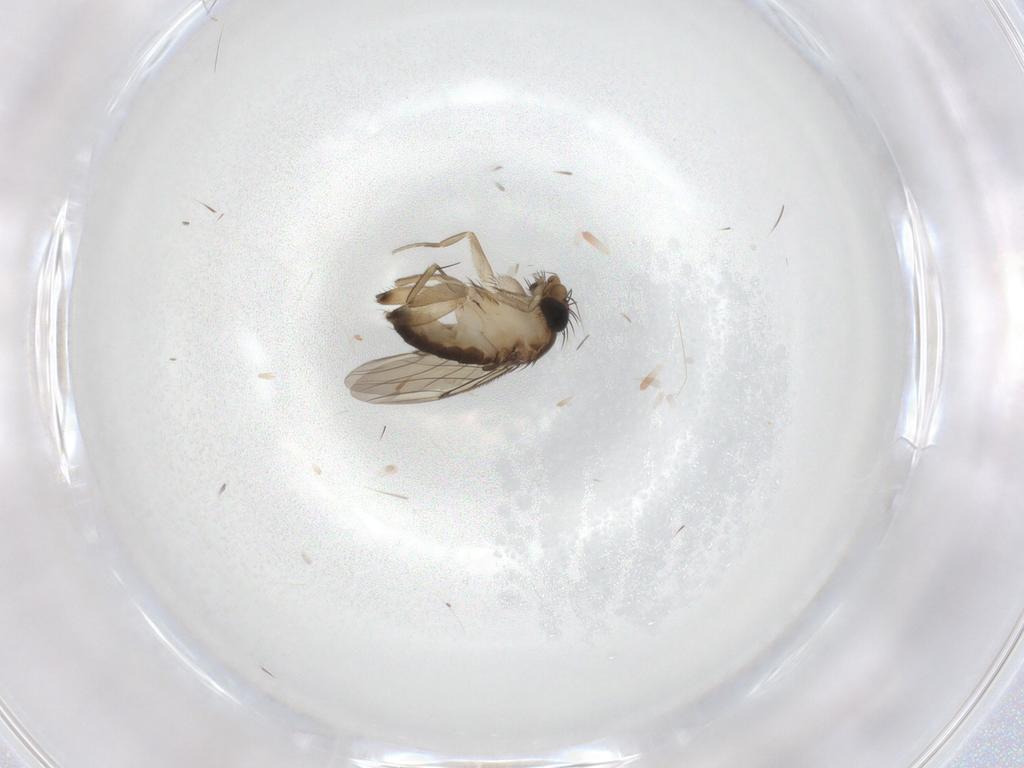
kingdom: Animalia
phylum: Arthropoda
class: Insecta
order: Diptera
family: Phoridae
